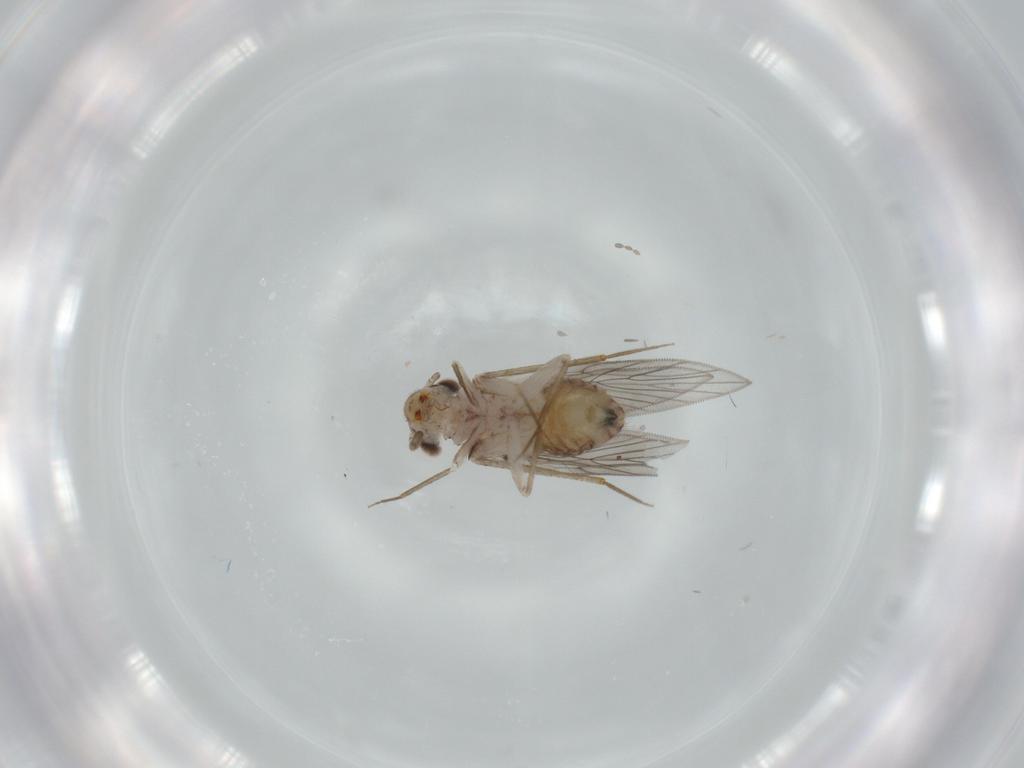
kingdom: Animalia
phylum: Arthropoda
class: Insecta
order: Psocodea
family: Lepidopsocidae
